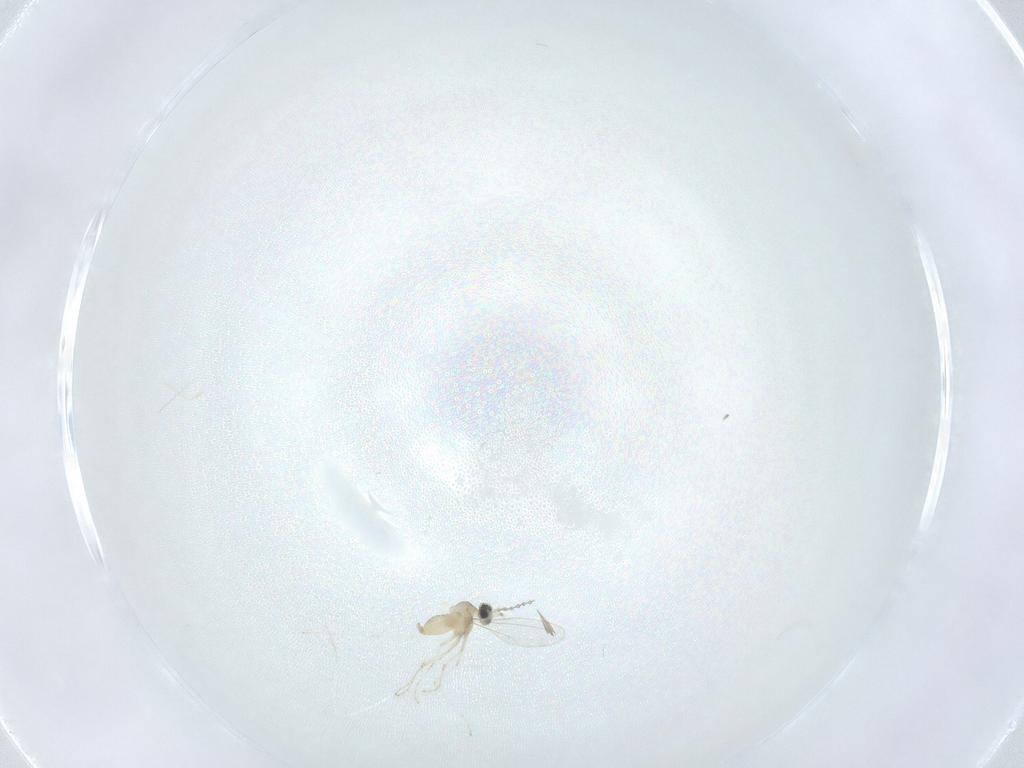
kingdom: Animalia
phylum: Arthropoda
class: Insecta
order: Diptera
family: Cecidomyiidae
